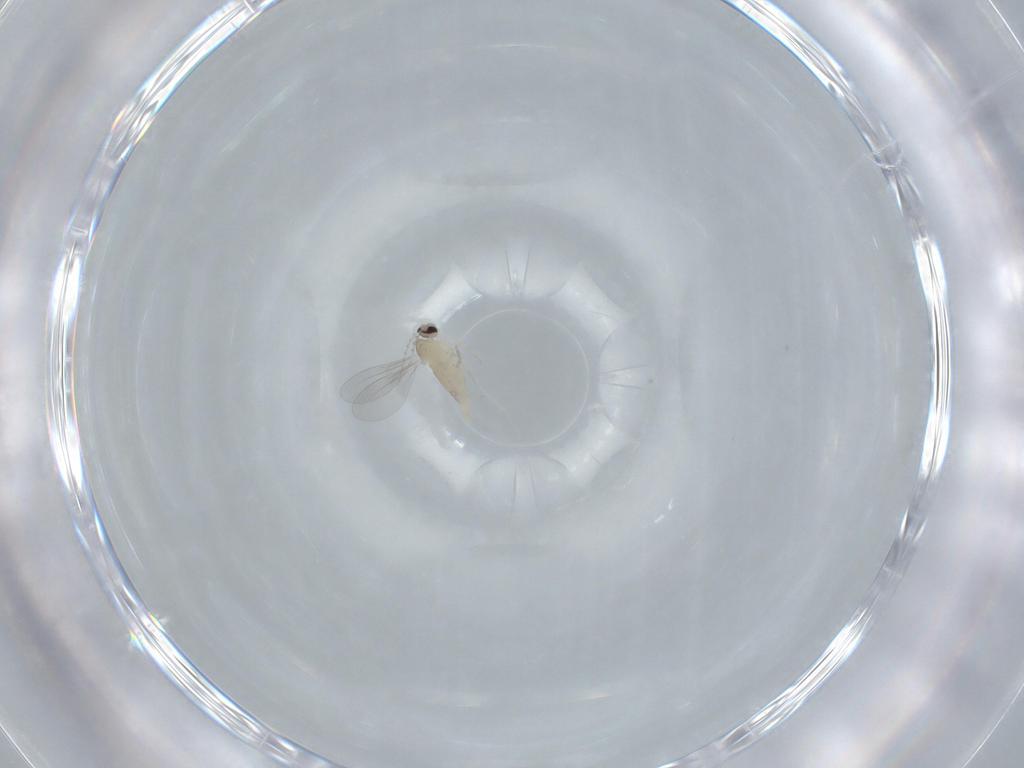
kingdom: Animalia
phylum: Arthropoda
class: Insecta
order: Diptera
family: Cecidomyiidae
